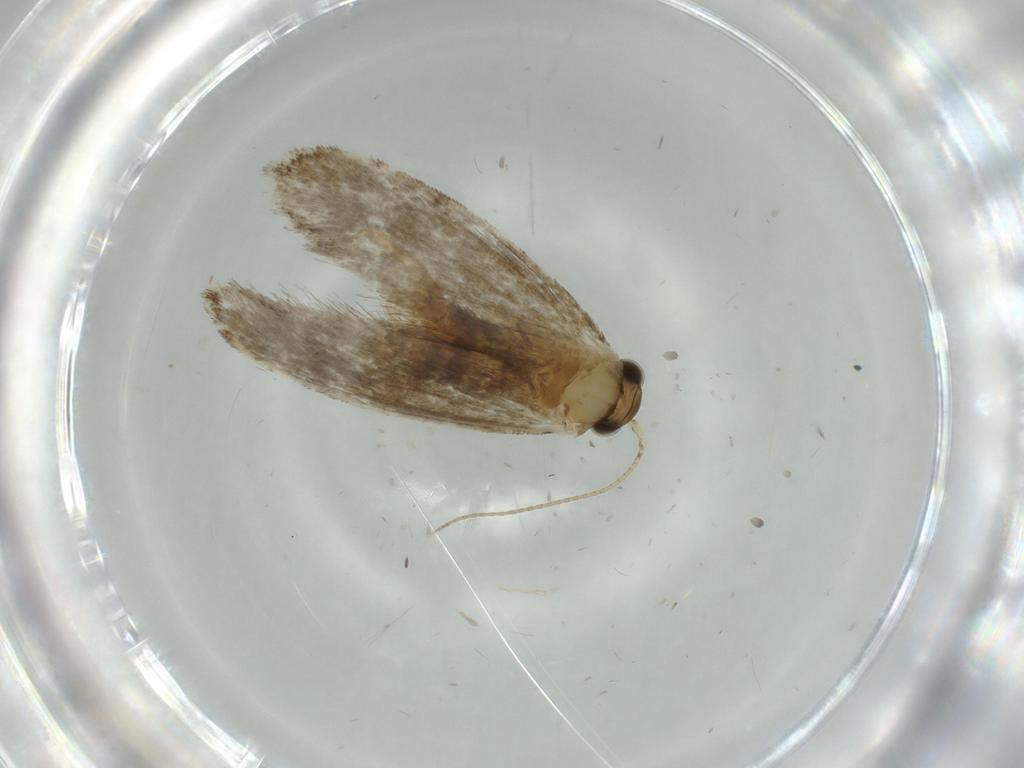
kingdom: Animalia
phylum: Arthropoda
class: Insecta
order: Lepidoptera
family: Tineidae
